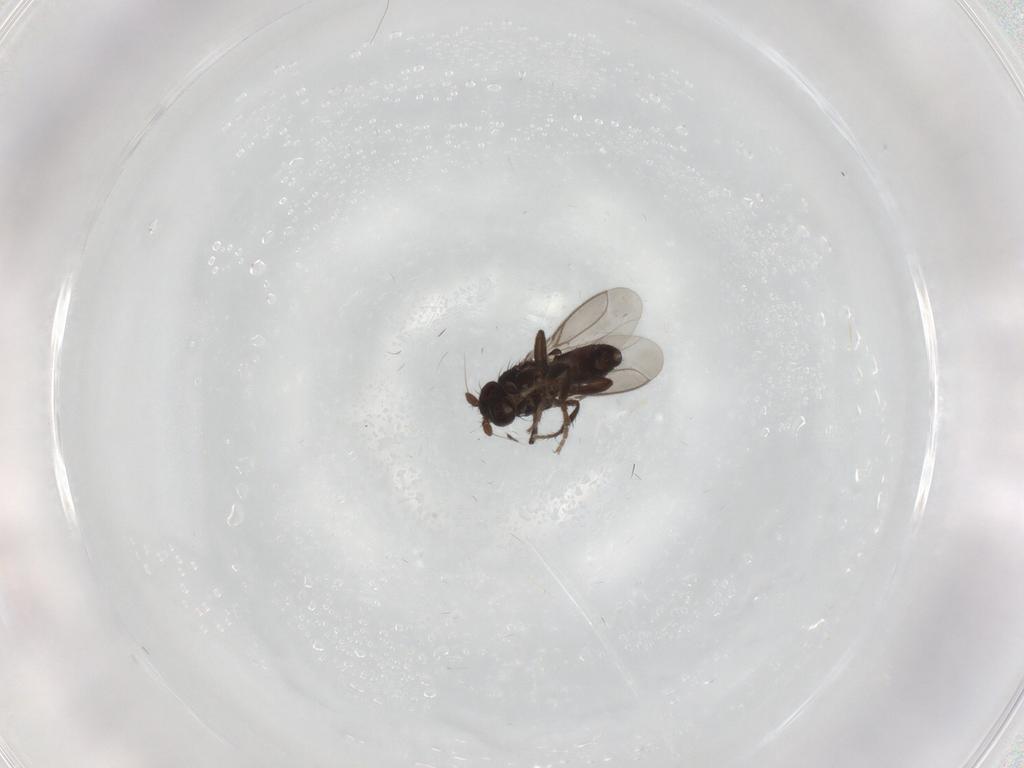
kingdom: Animalia
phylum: Arthropoda
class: Insecta
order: Diptera
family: Sphaeroceridae
